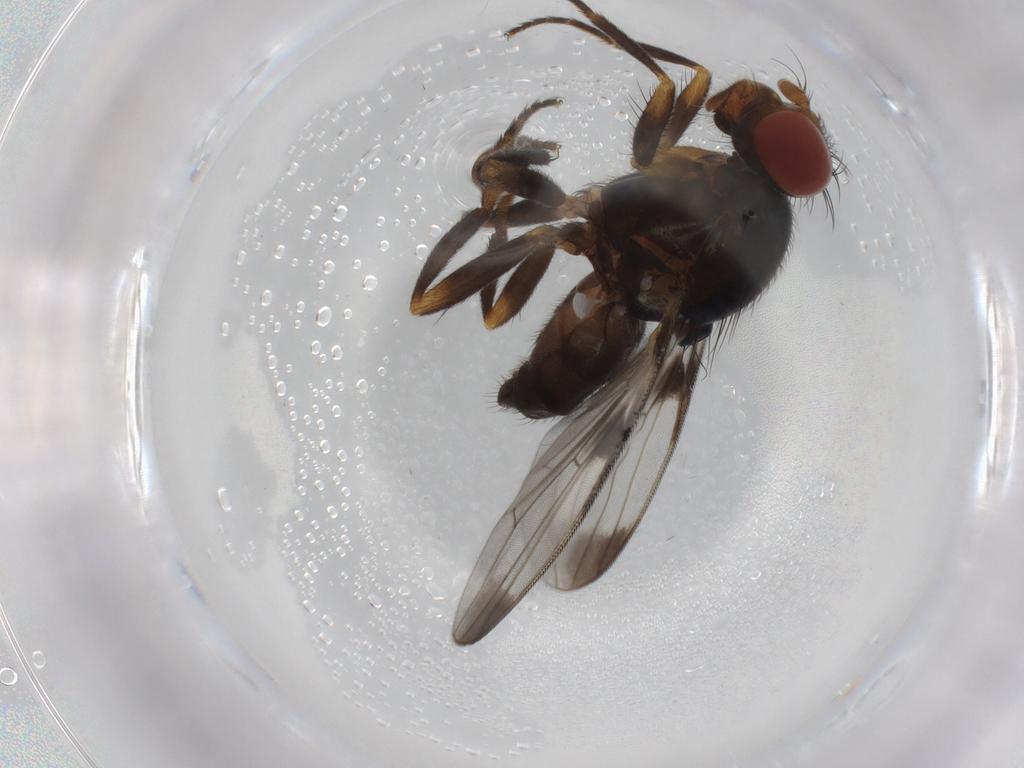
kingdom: Animalia
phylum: Arthropoda
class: Insecta
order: Diptera
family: Ulidiidae
